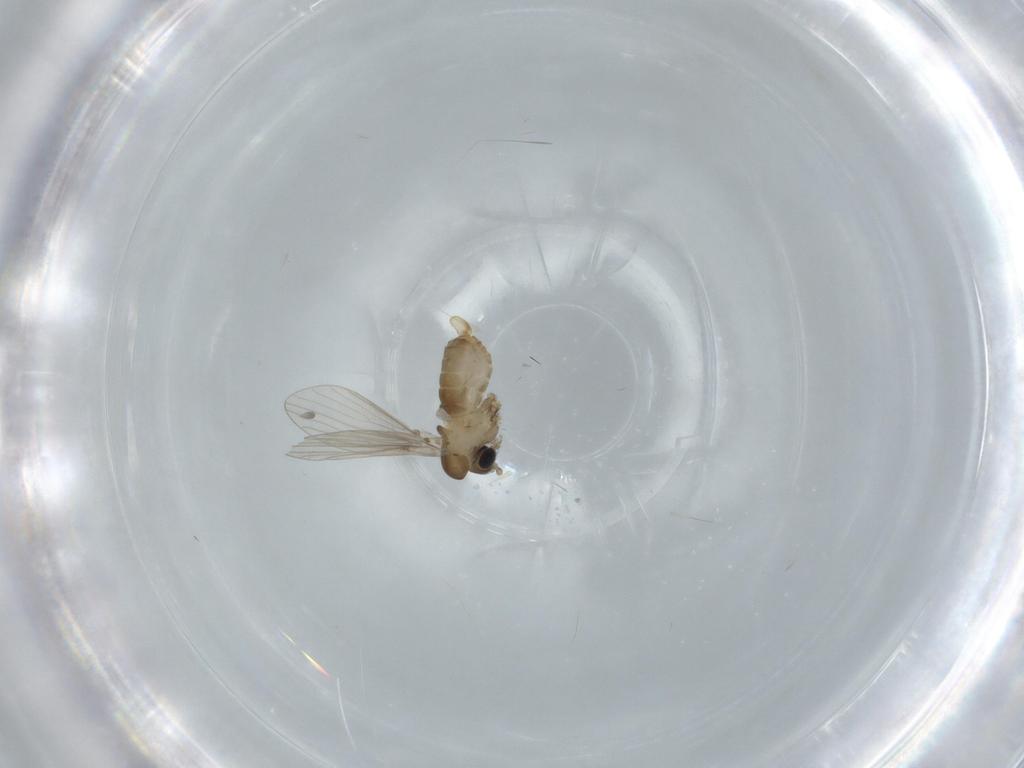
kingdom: Animalia
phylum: Arthropoda
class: Insecta
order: Diptera
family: Psychodidae
